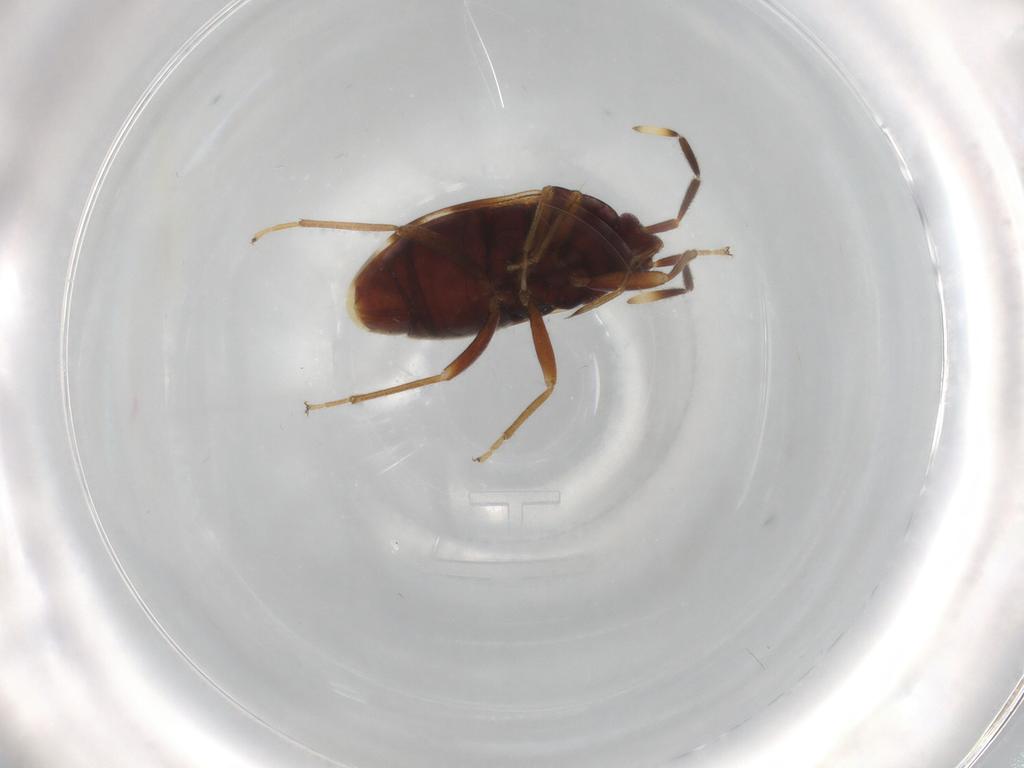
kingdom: Animalia
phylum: Arthropoda
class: Insecta
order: Hemiptera
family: Rhyparochromidae
